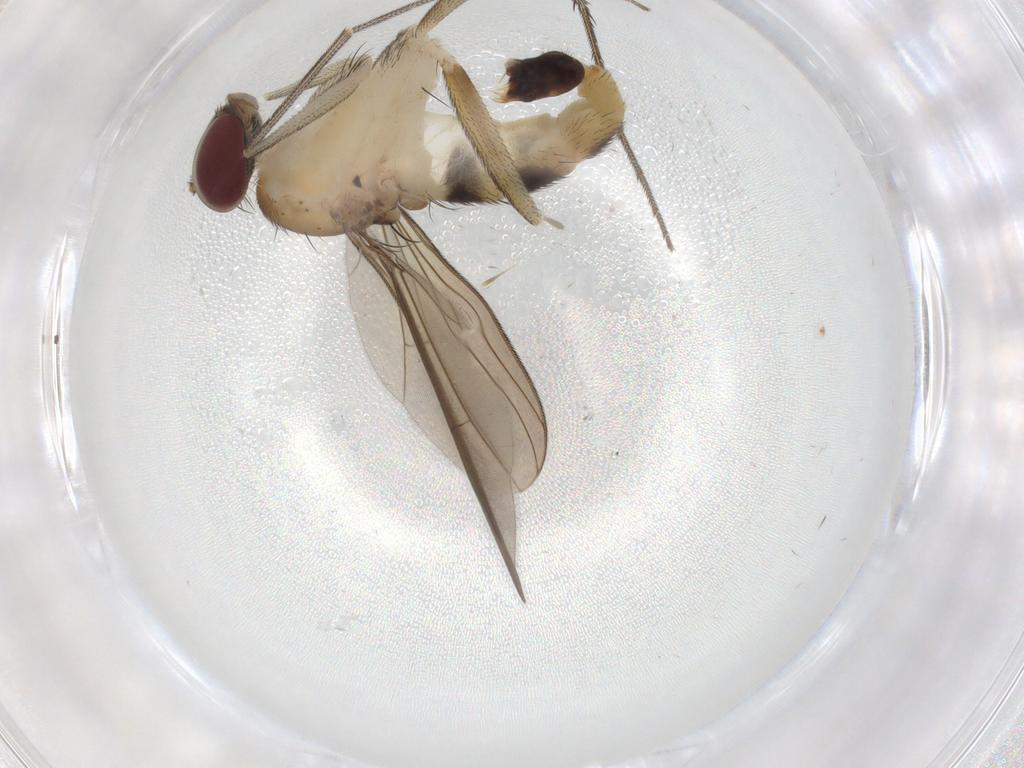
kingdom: Animalia
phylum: Arthropoda
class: Insecta
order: Diptera
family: Dolichopodidae
